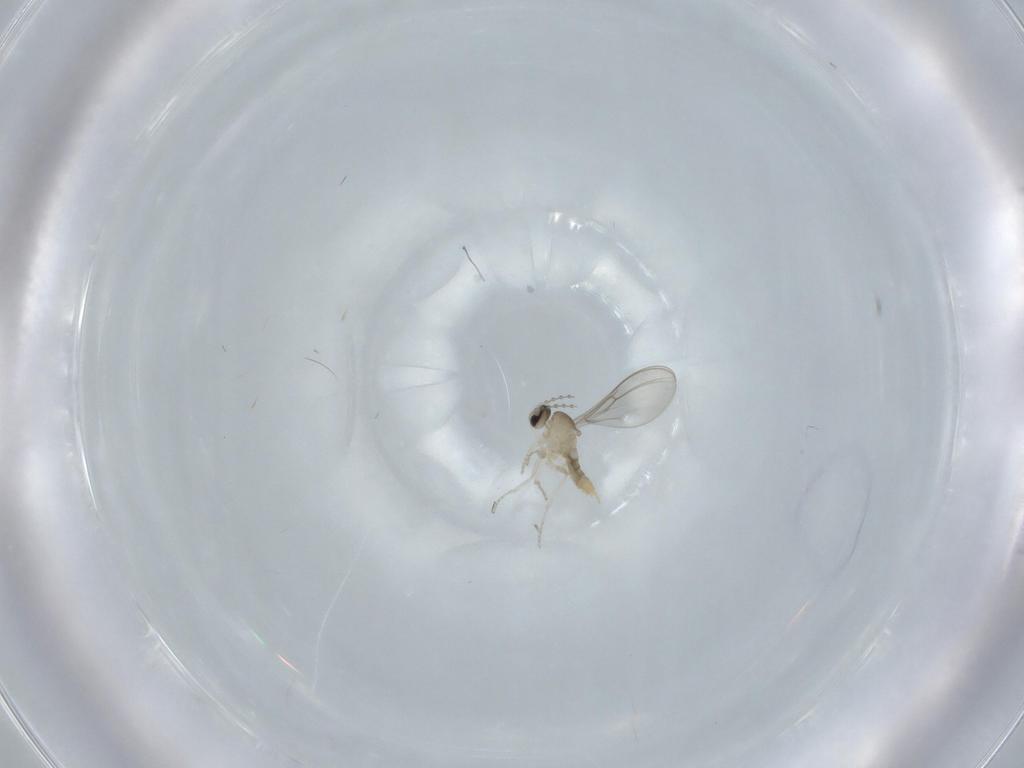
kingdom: Animalia
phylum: Arthropoda
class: Insecta
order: Diptera
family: Cecidomyiidae
